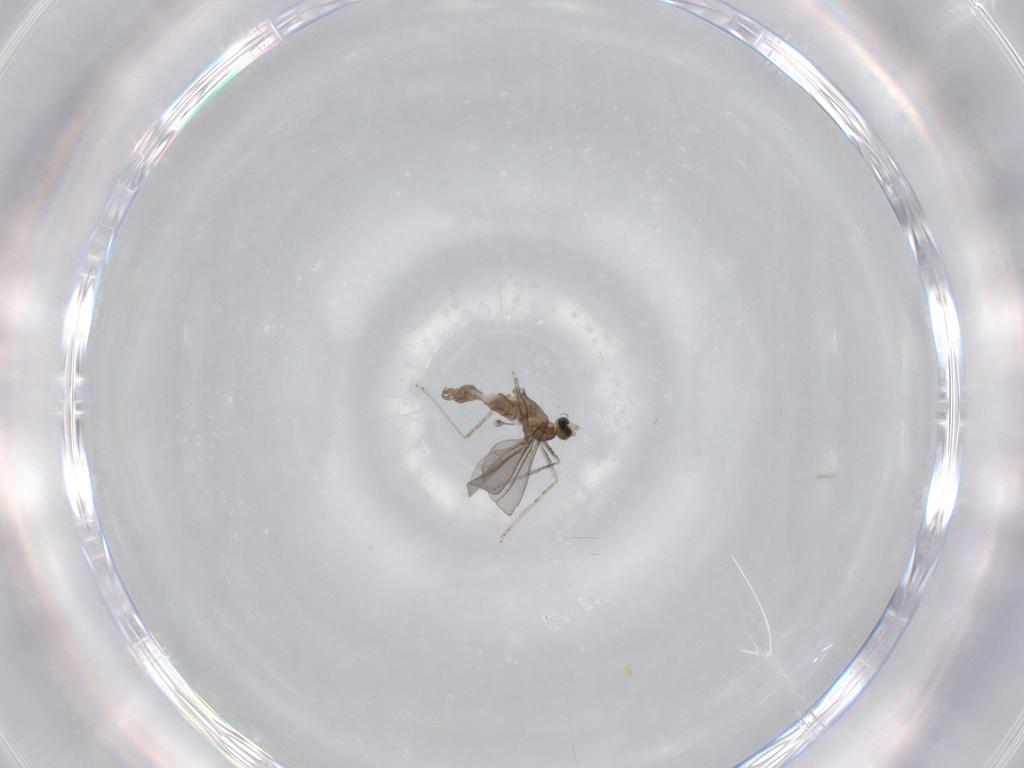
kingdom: Animalia
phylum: Arthropoda
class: Insecta
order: Diptera
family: Cecidomyiidae
